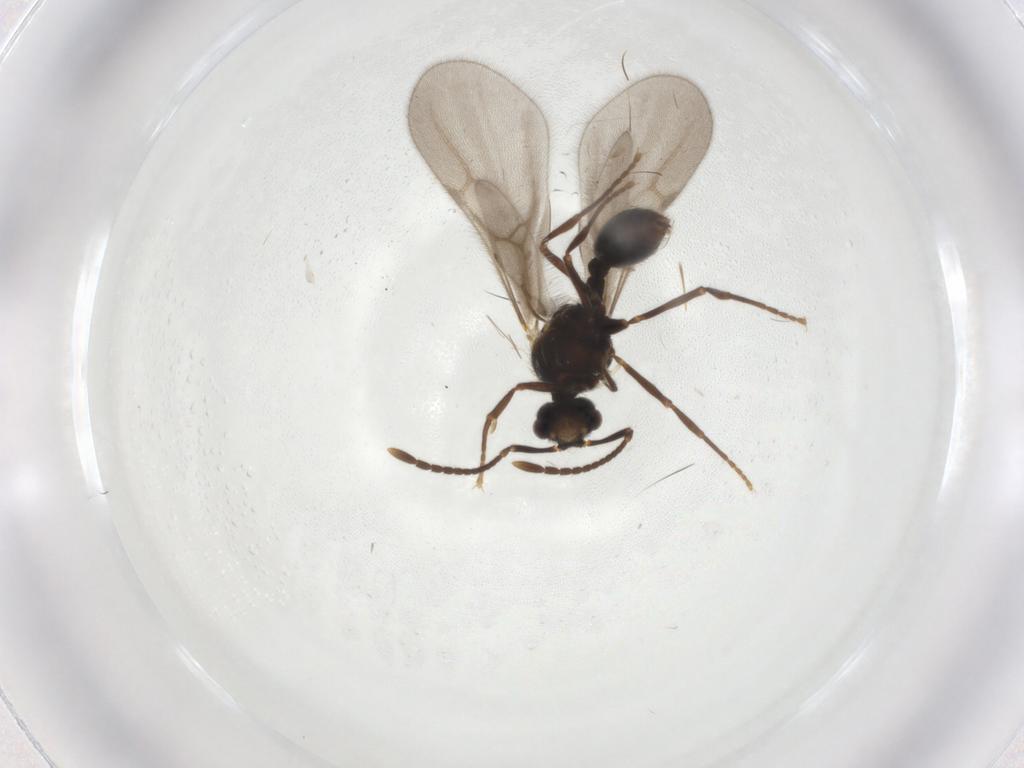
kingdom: Animalia
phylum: Arthropoda
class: Insecta
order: Hymenoptera
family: Formicidae
